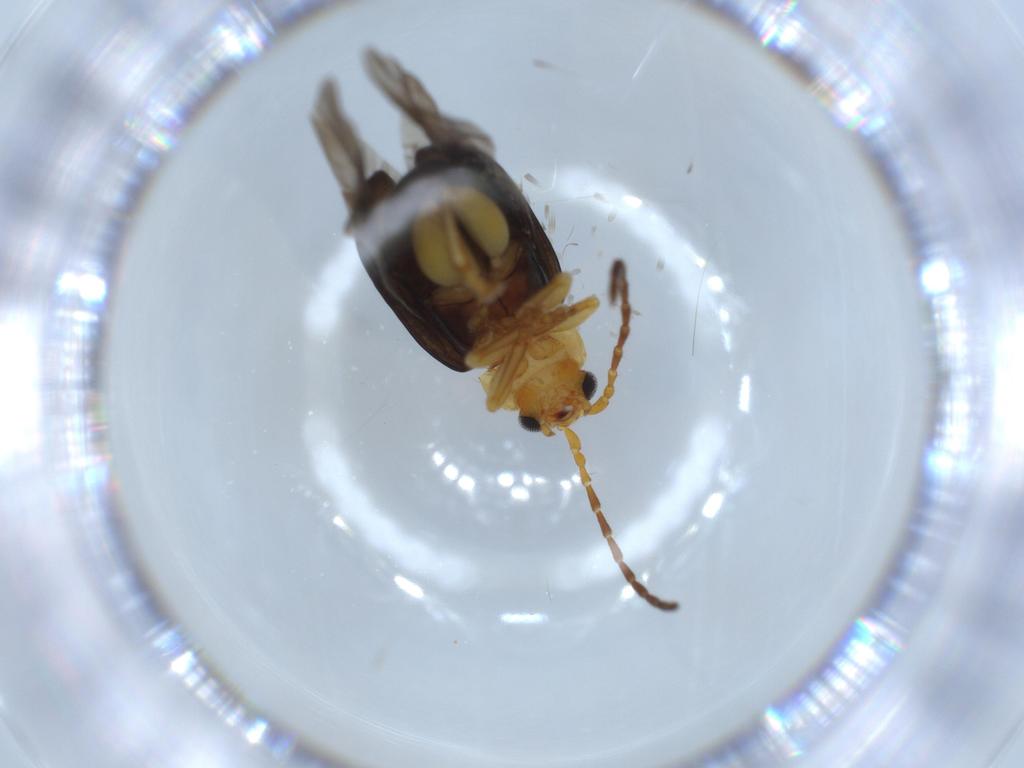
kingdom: Animalia
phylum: Arthropoda
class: Insecta
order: Coleoptera
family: Chrysomelidae
